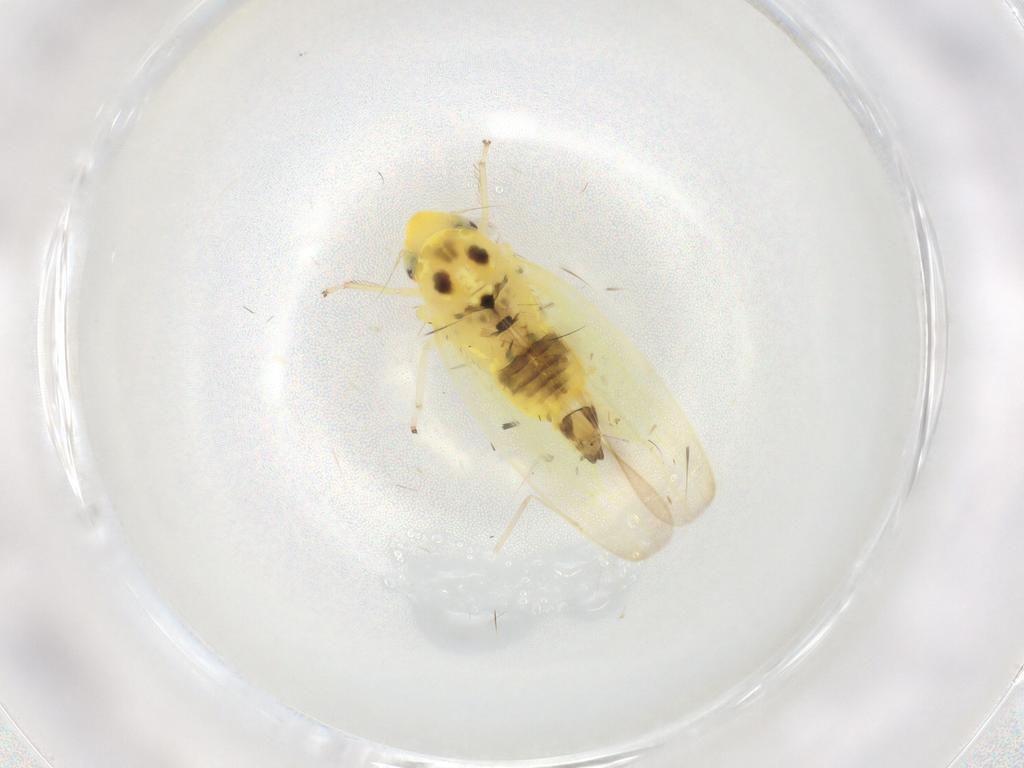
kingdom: Animalia
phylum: Arthropoda
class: Insecta
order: Hemiptera
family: Cicadellidae
